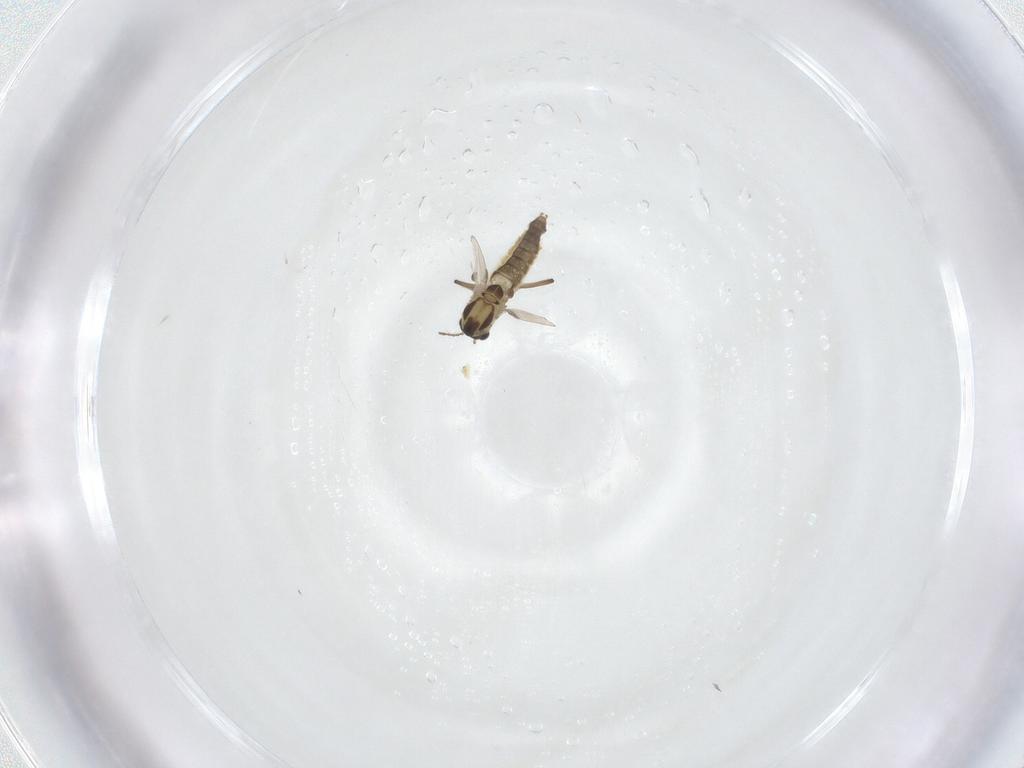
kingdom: Animalia
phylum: Arthropoda
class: Insecta
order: Diptera
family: Chironomidae
